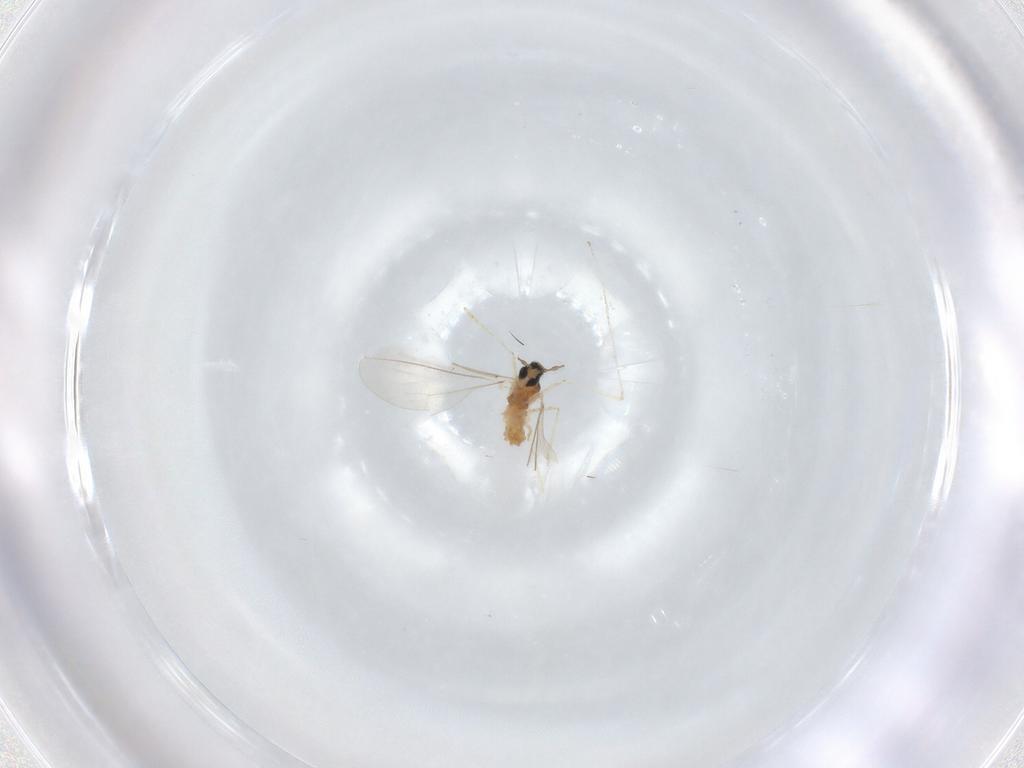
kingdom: Animalia
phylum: Arthropoda
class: Insecta
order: Diptera
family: Cecidomyiidae
